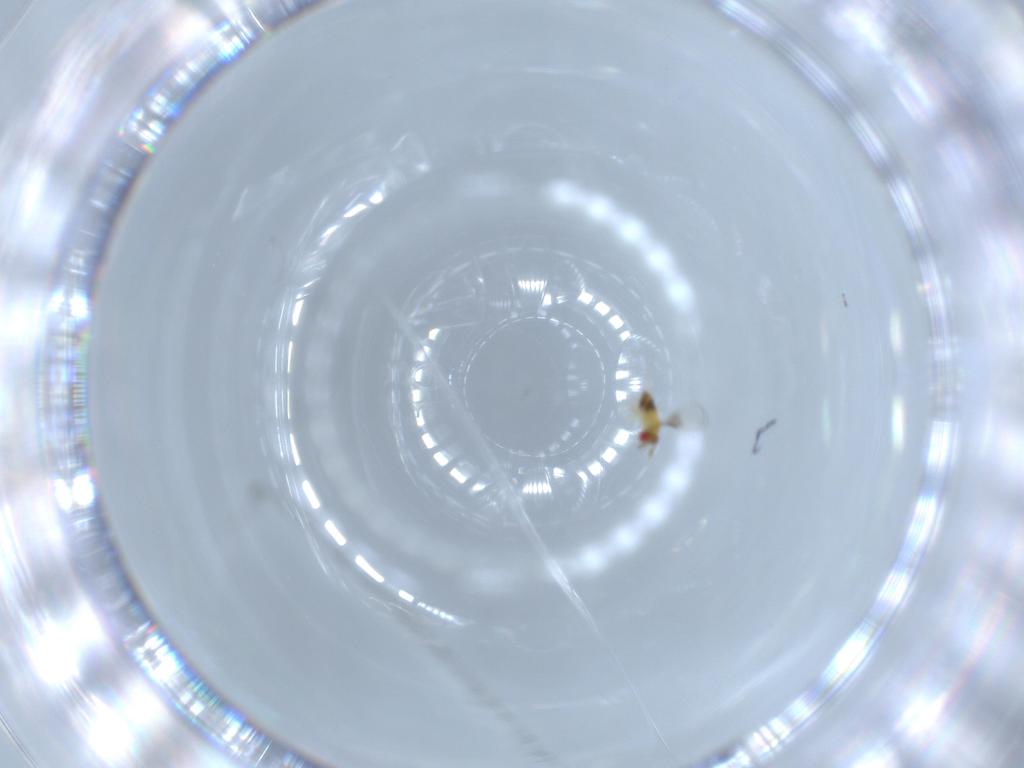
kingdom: Animalia
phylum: Arthropoda
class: Insecta
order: Hymenoptera
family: Trichogrammatidae
